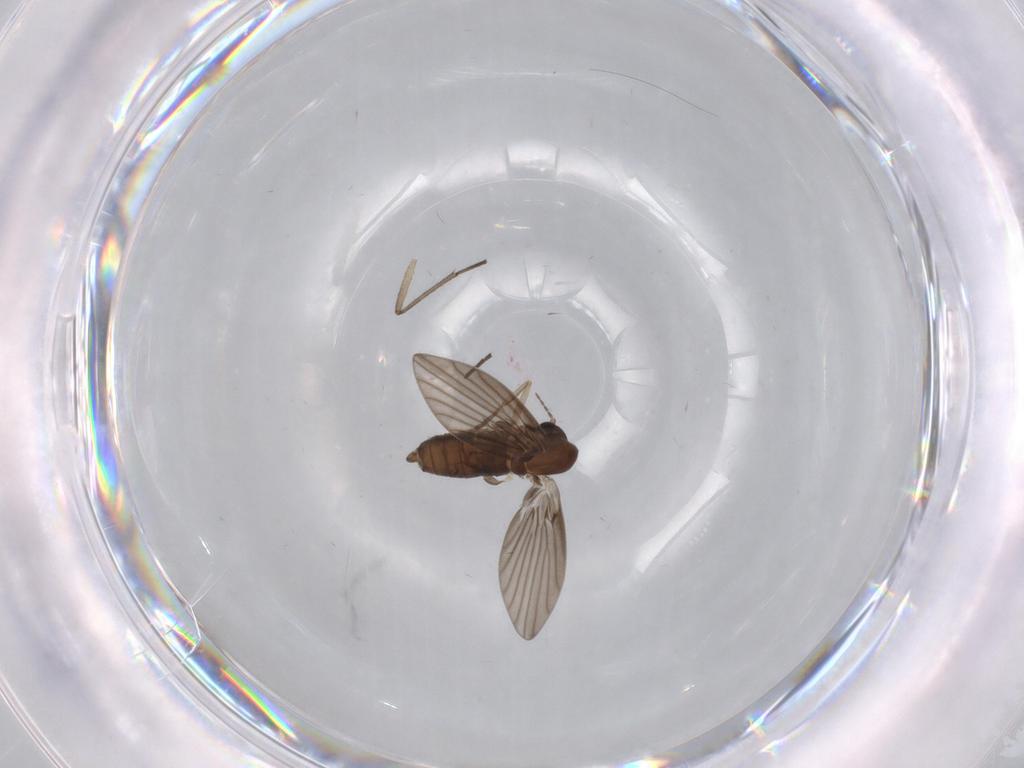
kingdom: Animalia
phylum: Arthropoda
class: Insecta
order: Diptera
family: Psychodidae
